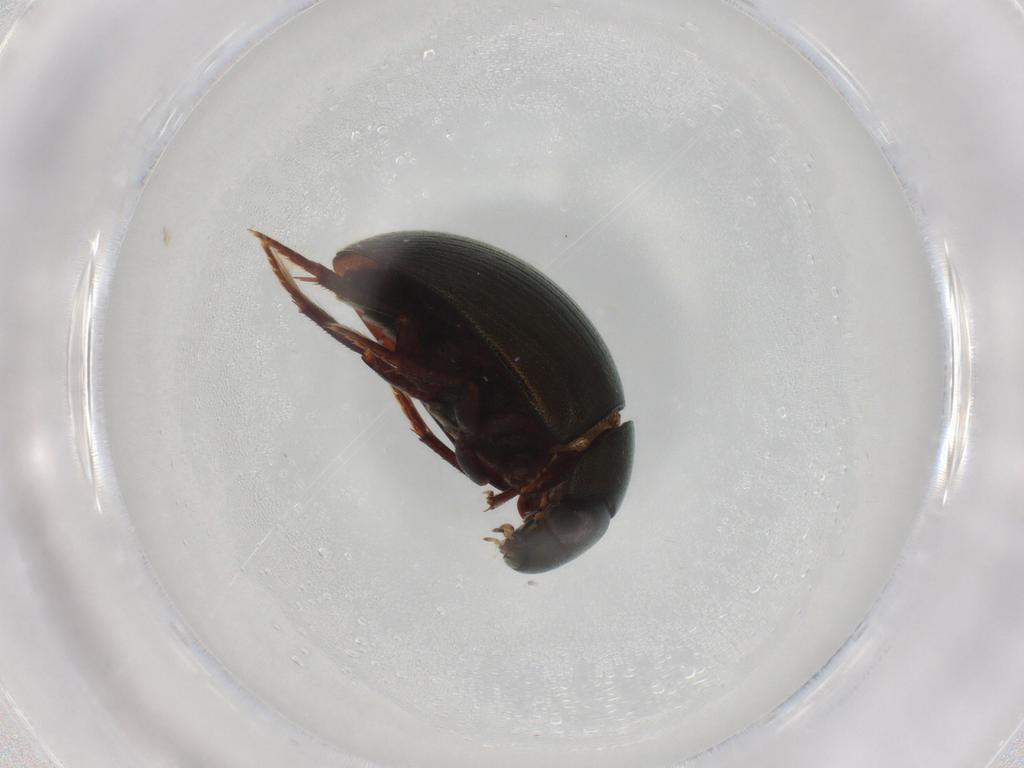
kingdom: Animalia
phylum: Arthropoda
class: Insecta
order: Coleoptera
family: Hydrophilidae
